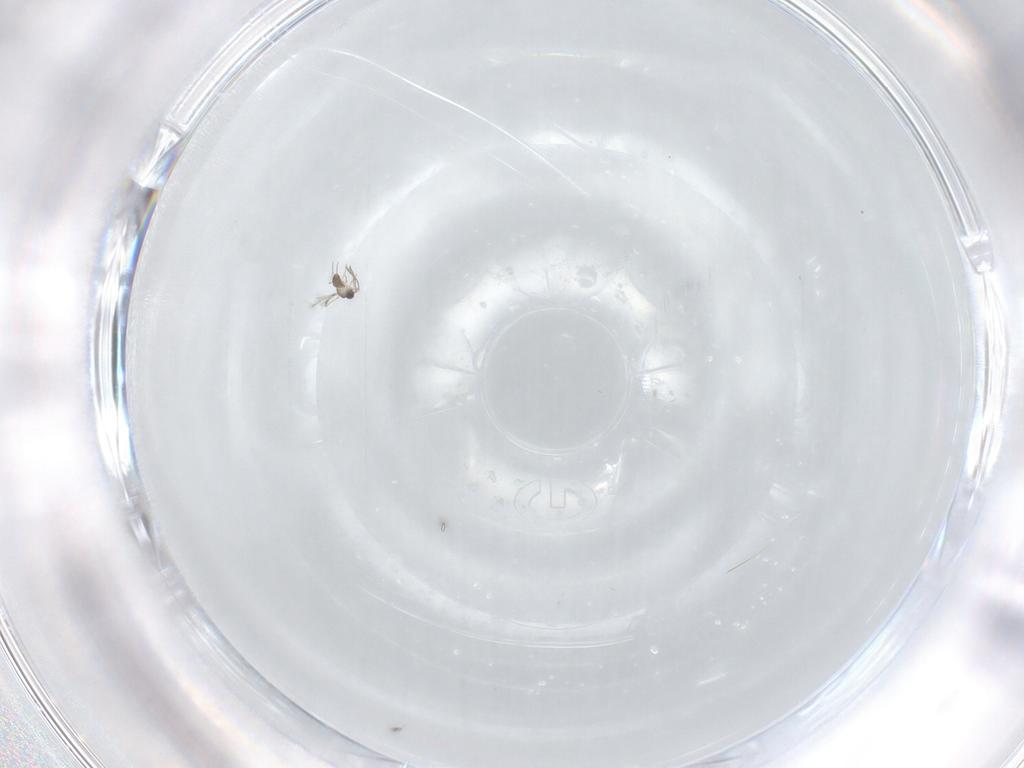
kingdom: Animalia
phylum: Arthropoda
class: Insecta
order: Hymenoptera
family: Mymaridae
